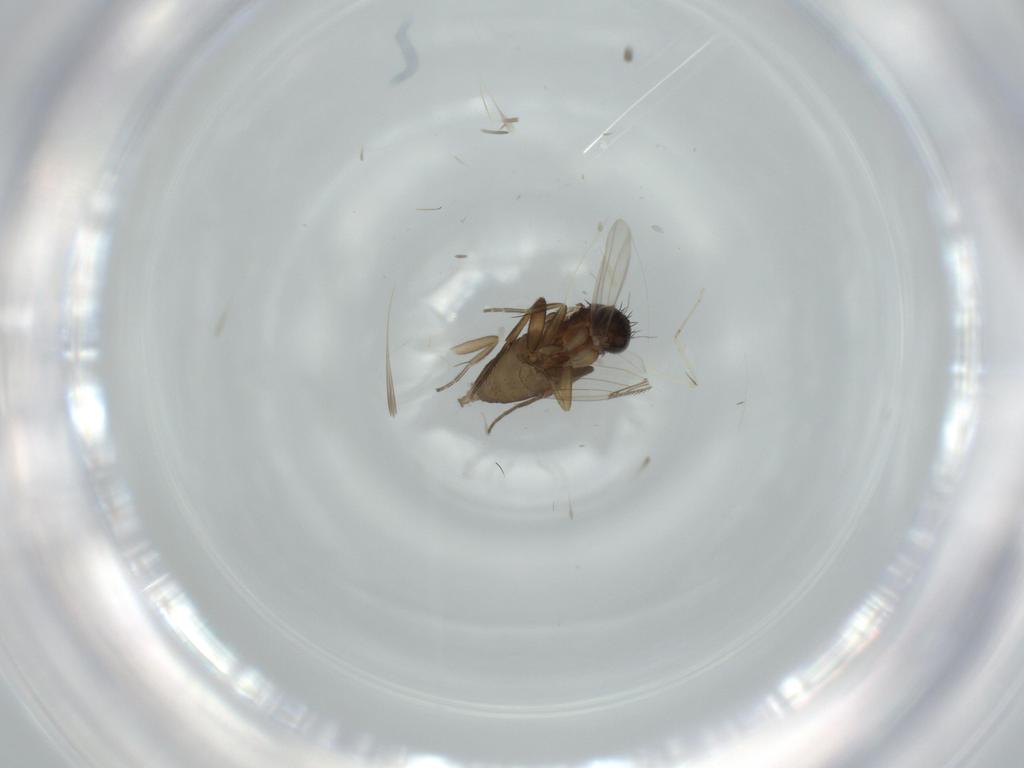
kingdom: Animalia
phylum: Arthropoda
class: Insecta
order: Diptera
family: Phoridae
